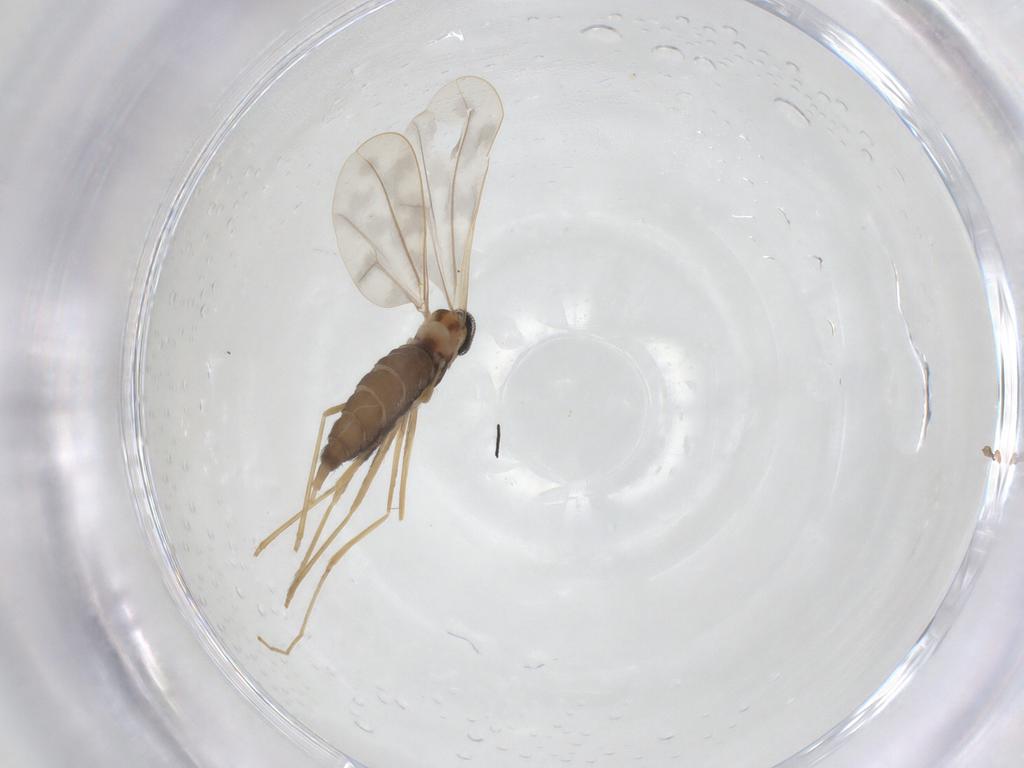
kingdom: Animalia
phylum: Arthropoda
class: Insecta
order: Diptera
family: Cecidomyiidae
